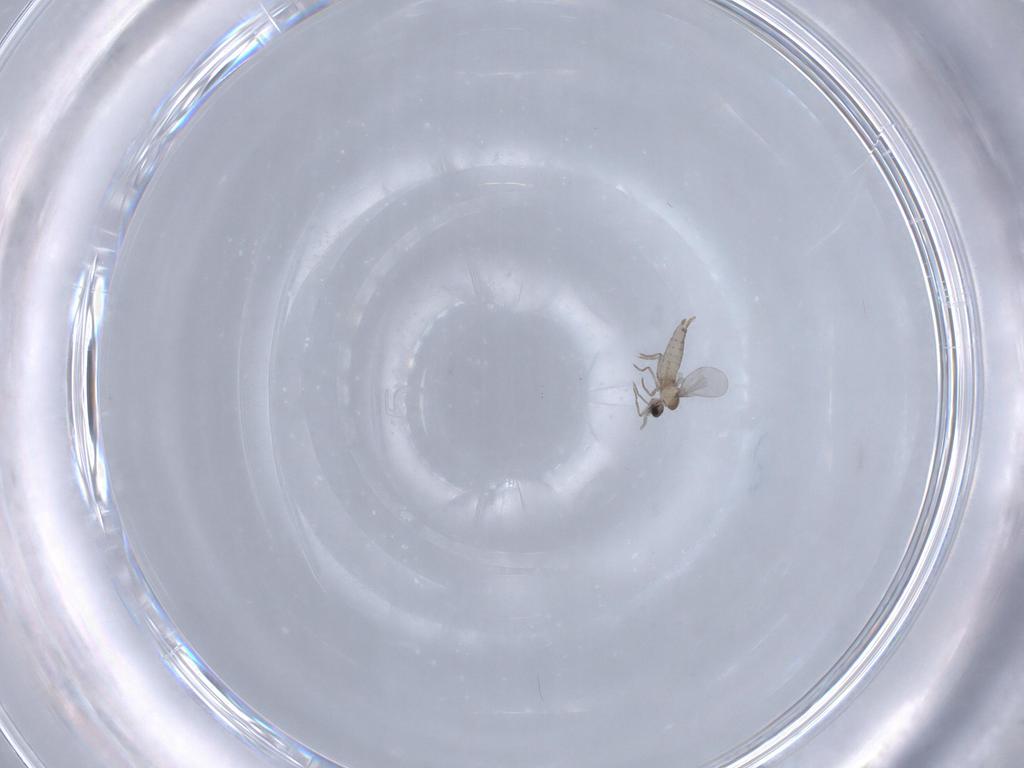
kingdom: Animalia
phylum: Arthropoda
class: Insecta
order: Diptera
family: Cecidomyiidae
